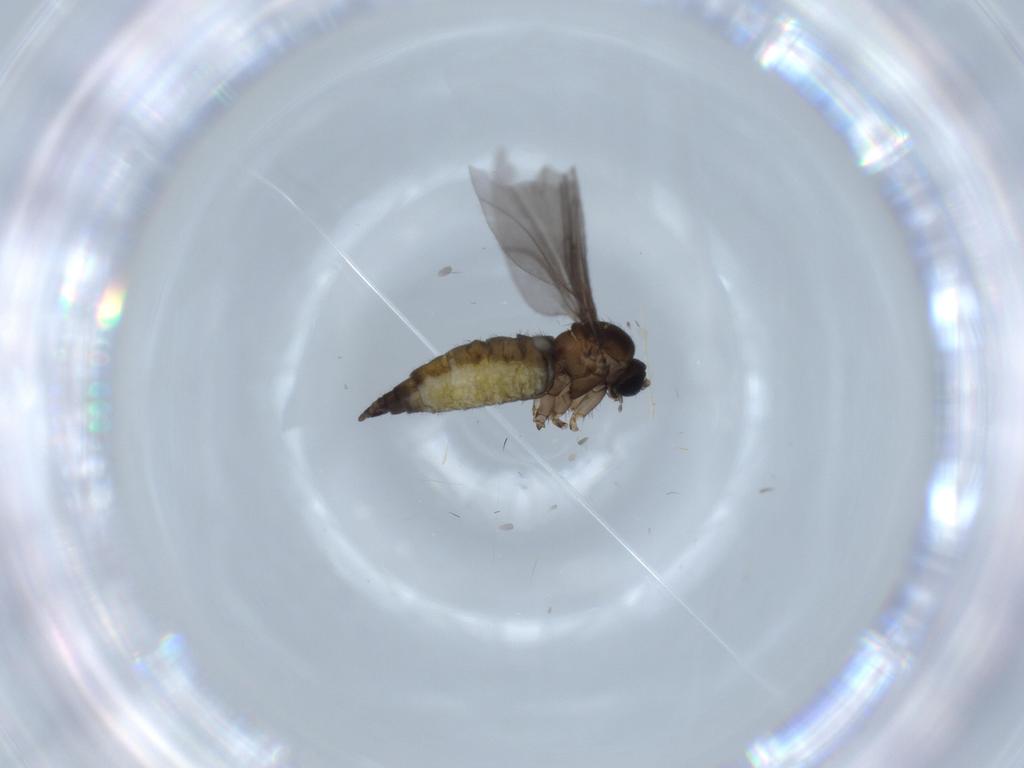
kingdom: Animalia
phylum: Arthropoda
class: Insecta
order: Diptera
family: Sciaridae
